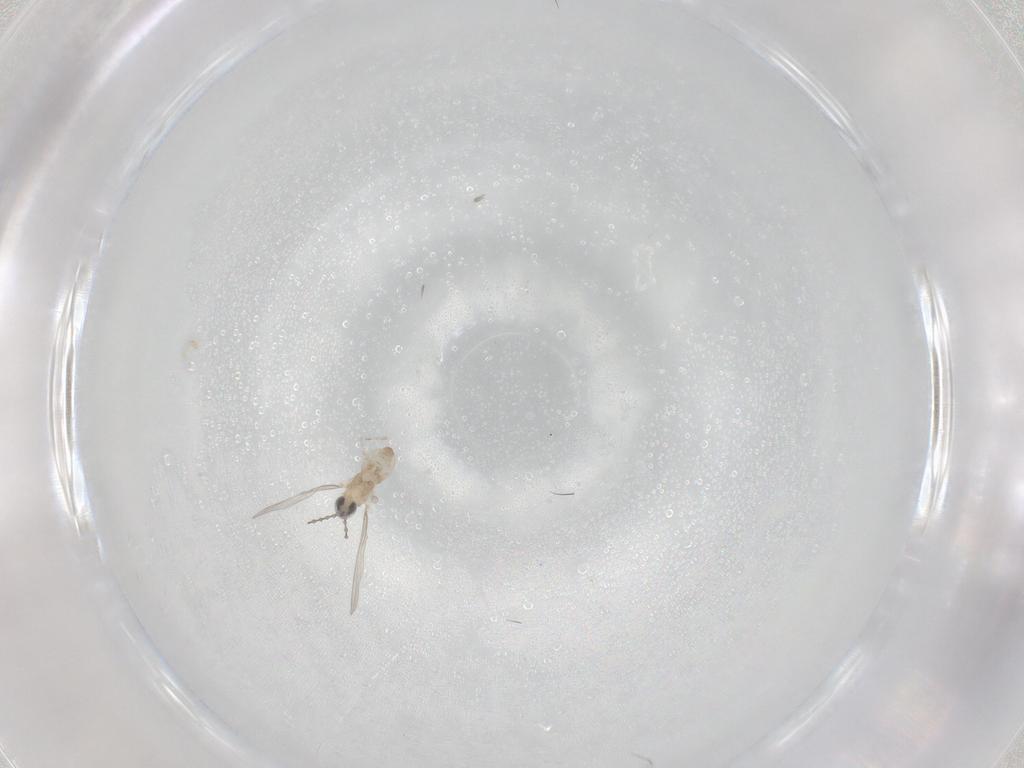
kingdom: Animalia
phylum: Arthropoda
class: Insecta
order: Diptera
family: Cecidomyiidae
